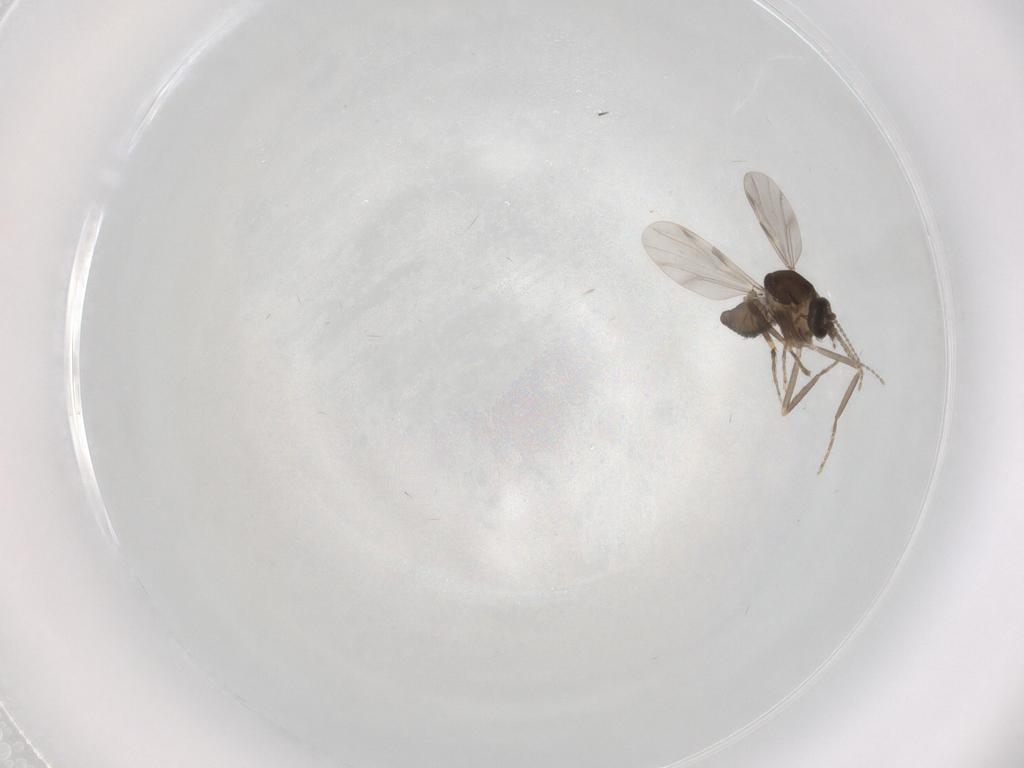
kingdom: Animalia
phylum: Arthropoda
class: Insecta
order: Diptera
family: Ceratopogonidae
